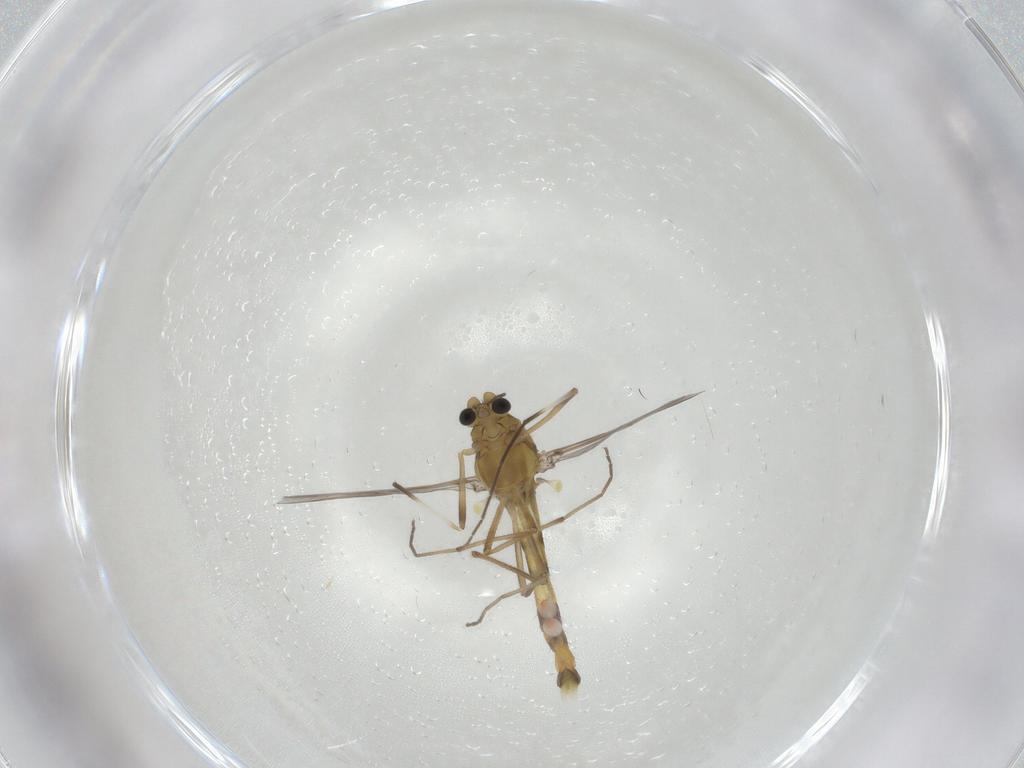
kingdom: Animalia
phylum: Arthropoda
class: Insecta
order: Diptera
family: Chironomidae
